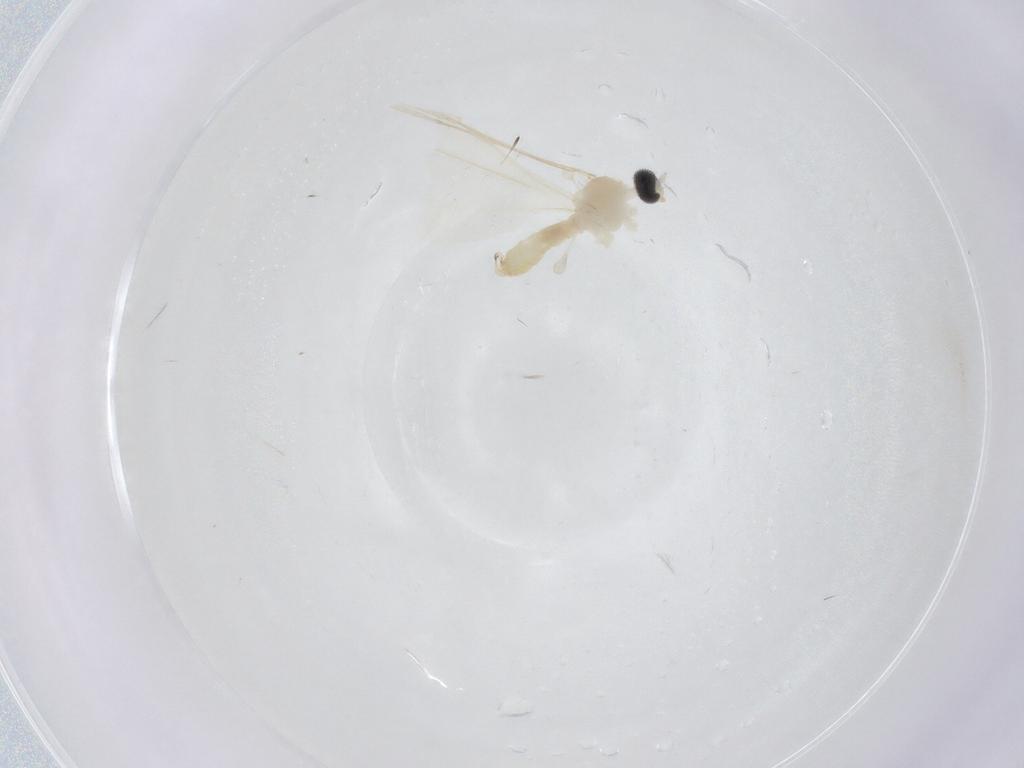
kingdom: Animalia
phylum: Arthropoda
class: Insecta
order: Diptera
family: Cecidomyiidae
